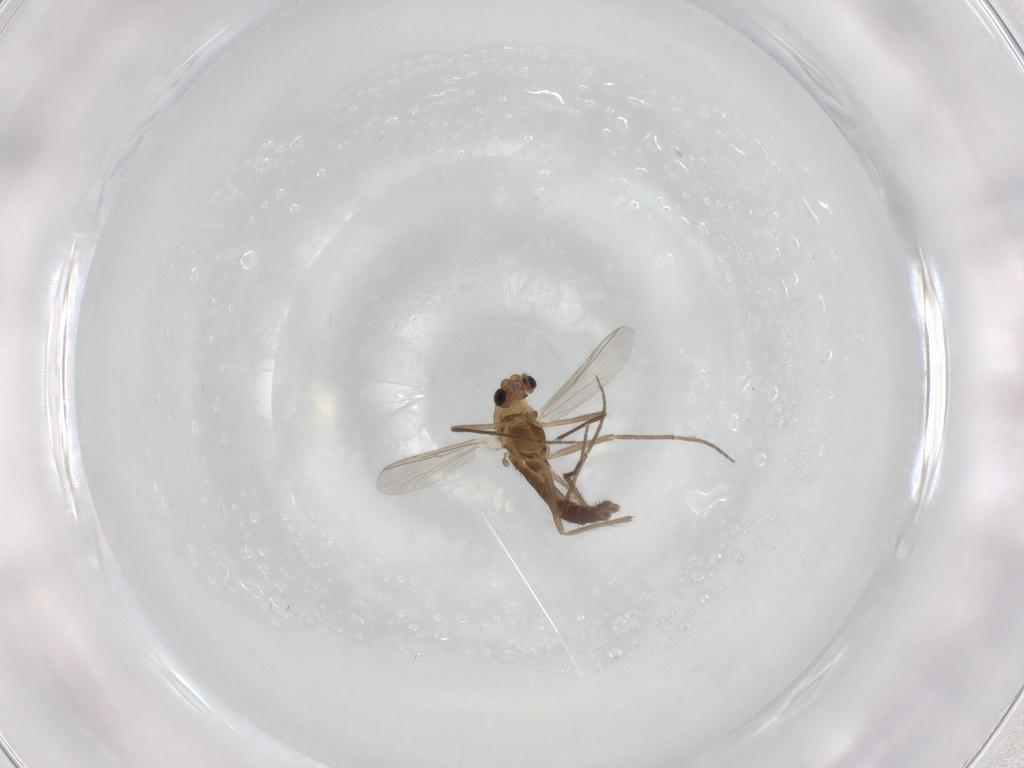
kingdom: Animalia
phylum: Arthropoda
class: Insecta
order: Diptera
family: Chironomidae
